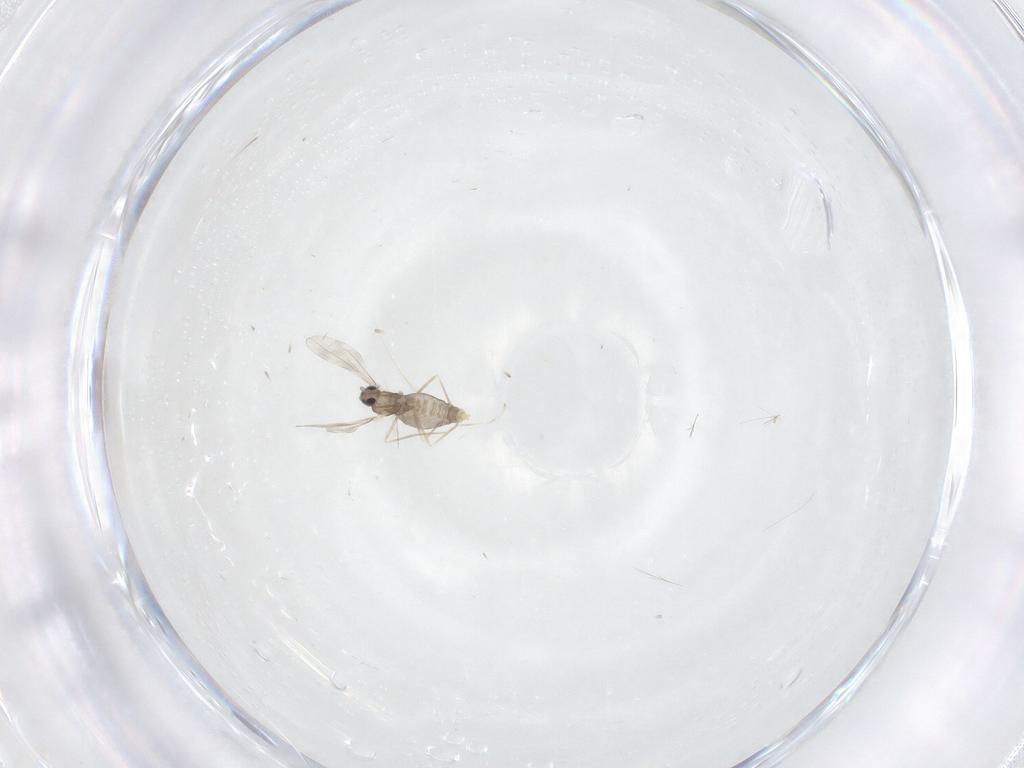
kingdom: Animalia
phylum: Arthropoda
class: Insecta
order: Diptera
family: Cecidomyiidae
